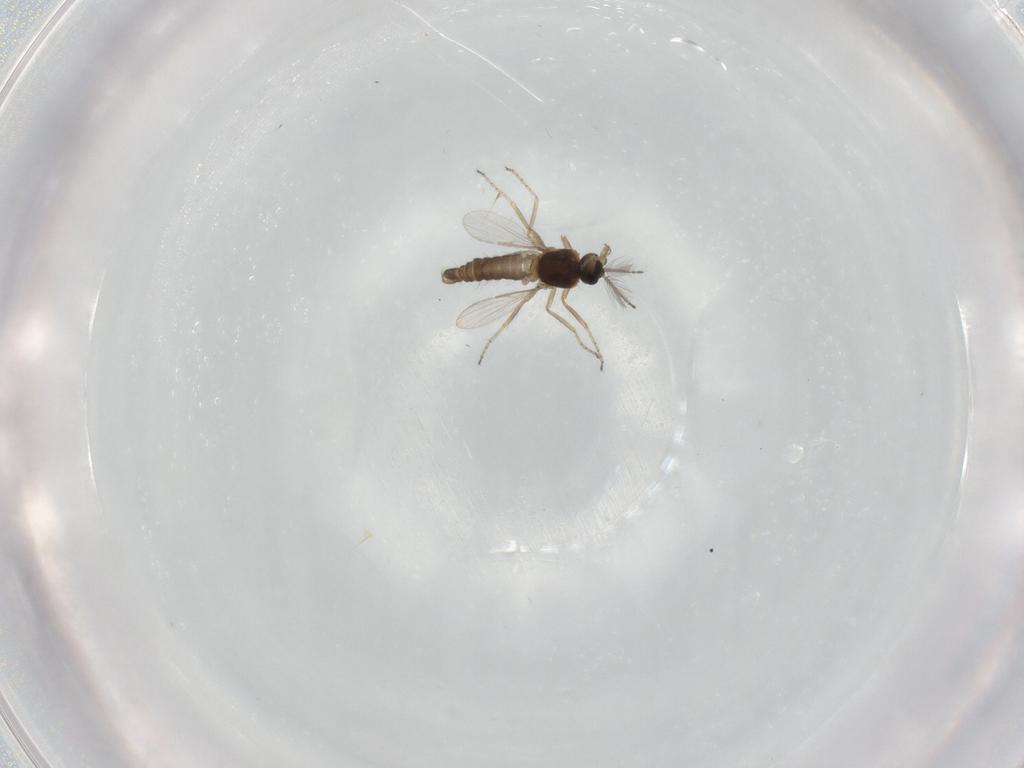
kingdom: Animalia
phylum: Arthropoda
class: Insecta
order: Diptera
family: Ceratopogonidae
